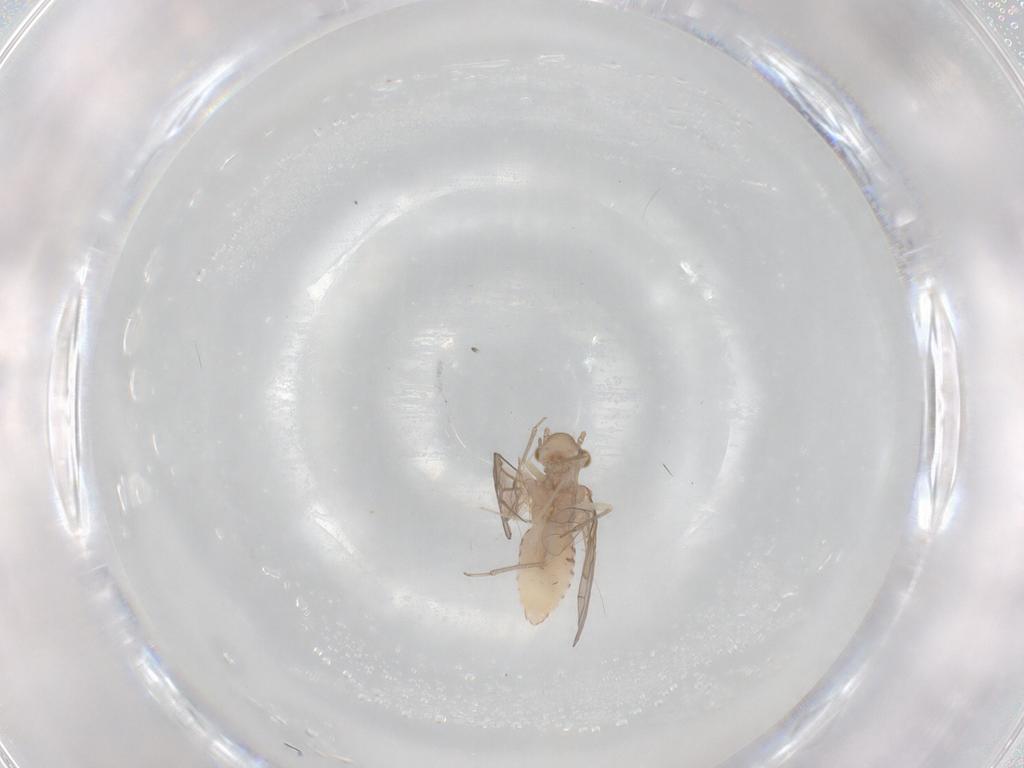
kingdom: Animalia
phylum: Arthropoda
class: Insecta
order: Psocodea
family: Lachesillidae
